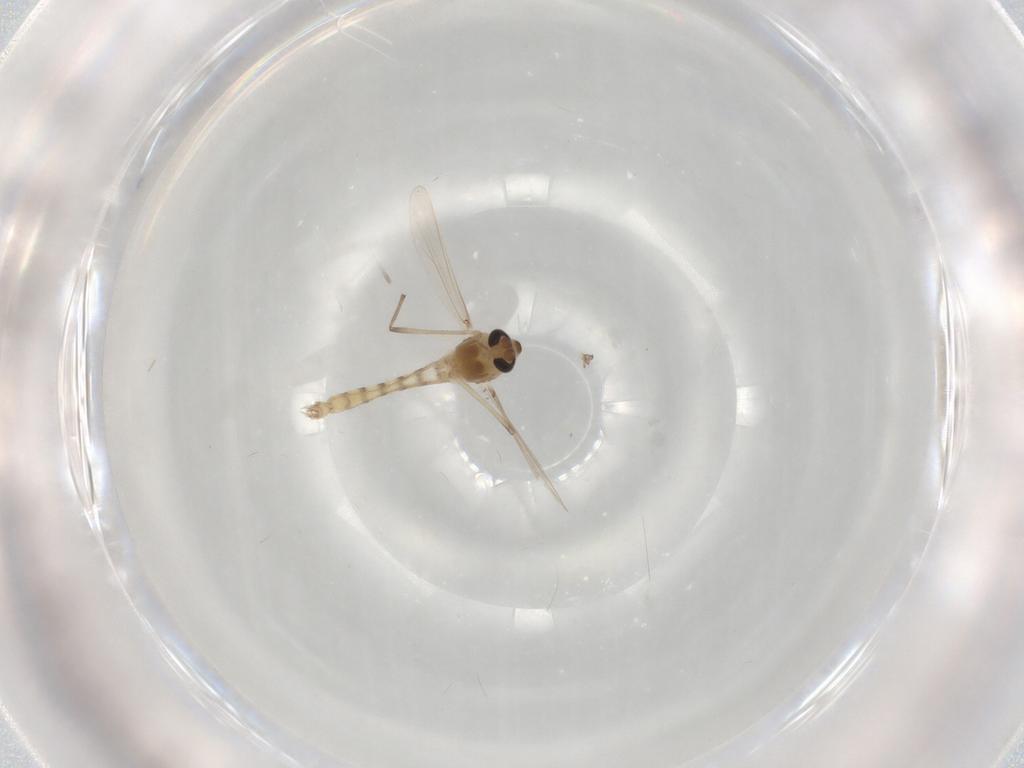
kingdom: Animalia
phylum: Arthropoda
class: Insecta
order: Diptera
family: Chironomidae
